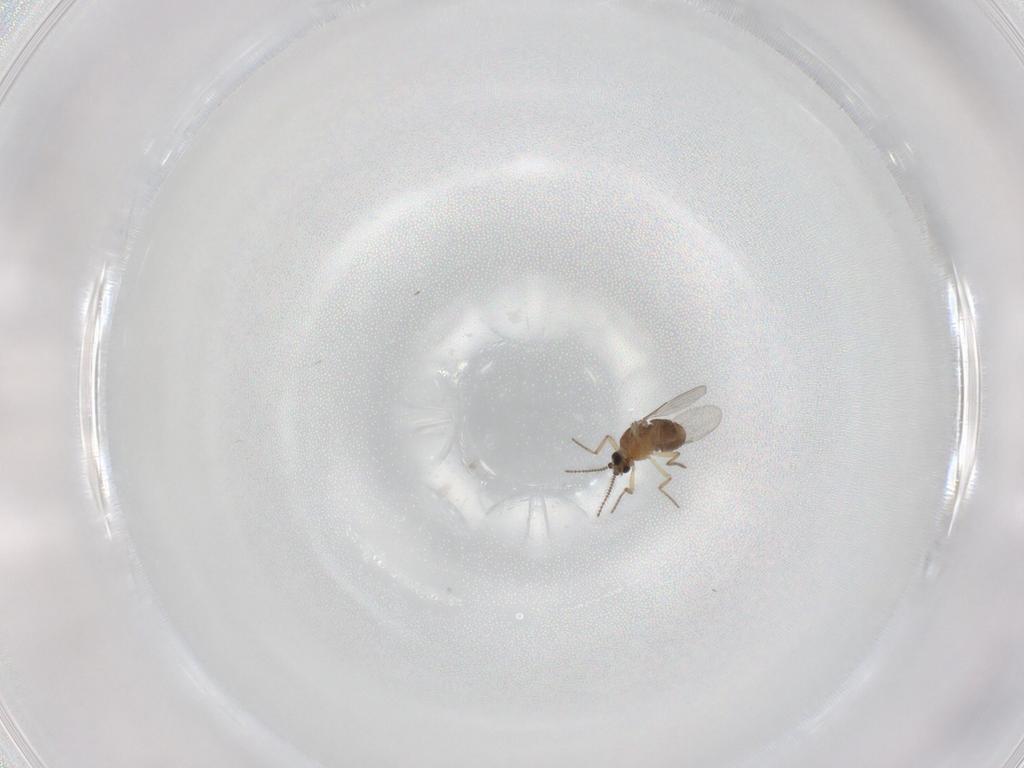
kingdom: Animalia
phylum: Arthropoda
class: Insecta
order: Diptera
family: Ceratopogonidae
